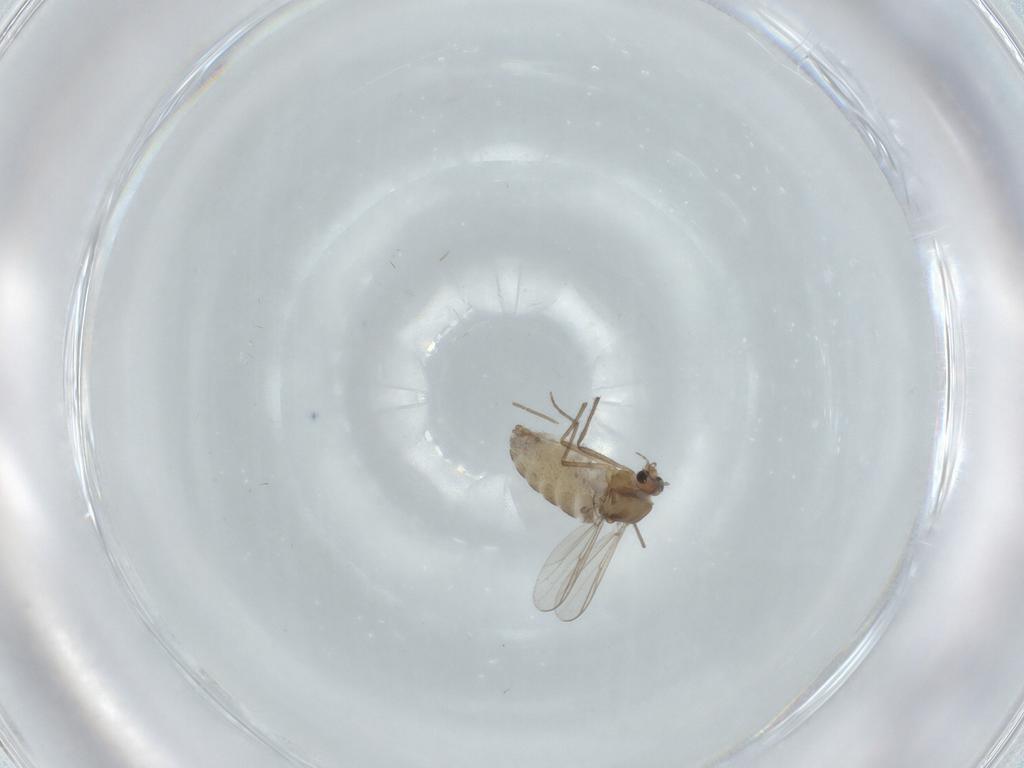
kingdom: Animalia
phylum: Arthropoda
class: Insecta
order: Diptera
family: Chironomidae
